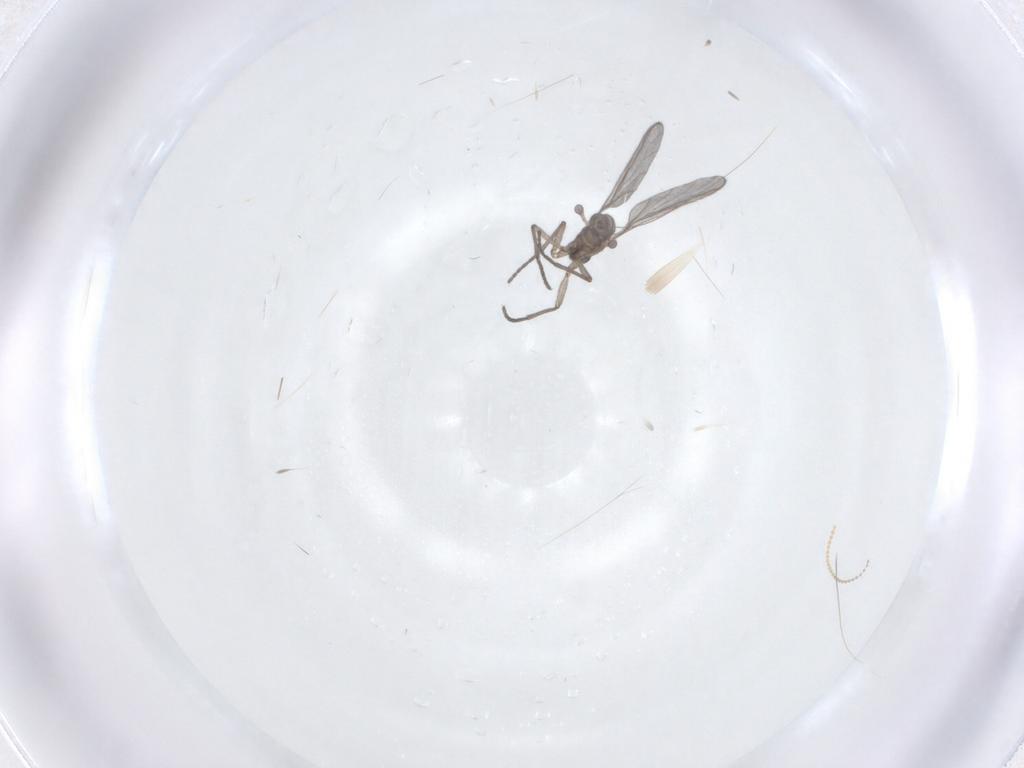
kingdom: Animalia
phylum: Arthropoda
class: Insecta
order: Diptera
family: Sciaridae
